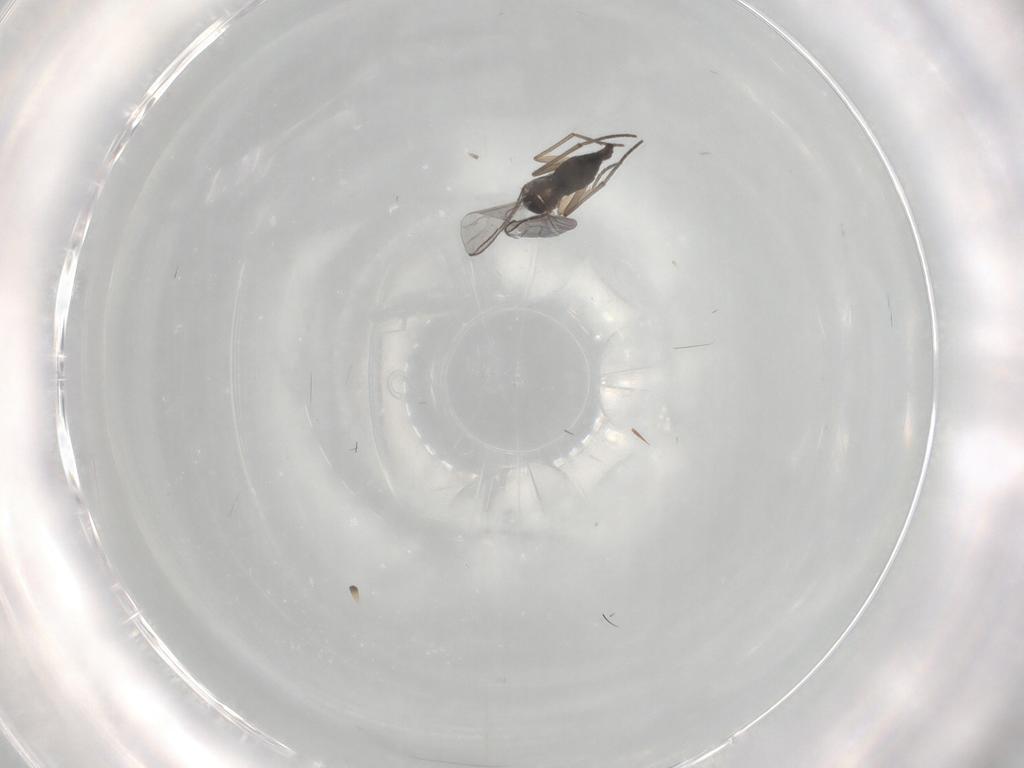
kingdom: Animalia
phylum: Arthropoda
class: Insecta
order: Diptera
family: Sciaridae
